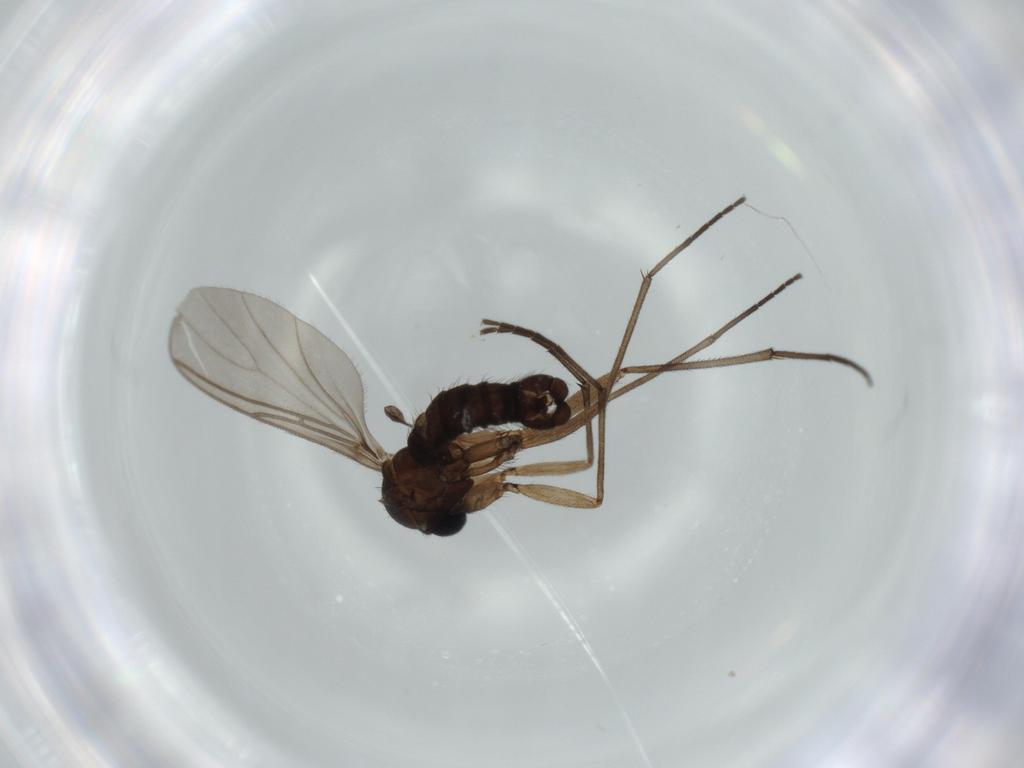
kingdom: Animalia
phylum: Arthropoda
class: Insecta
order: Diptera
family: Sciaridae
